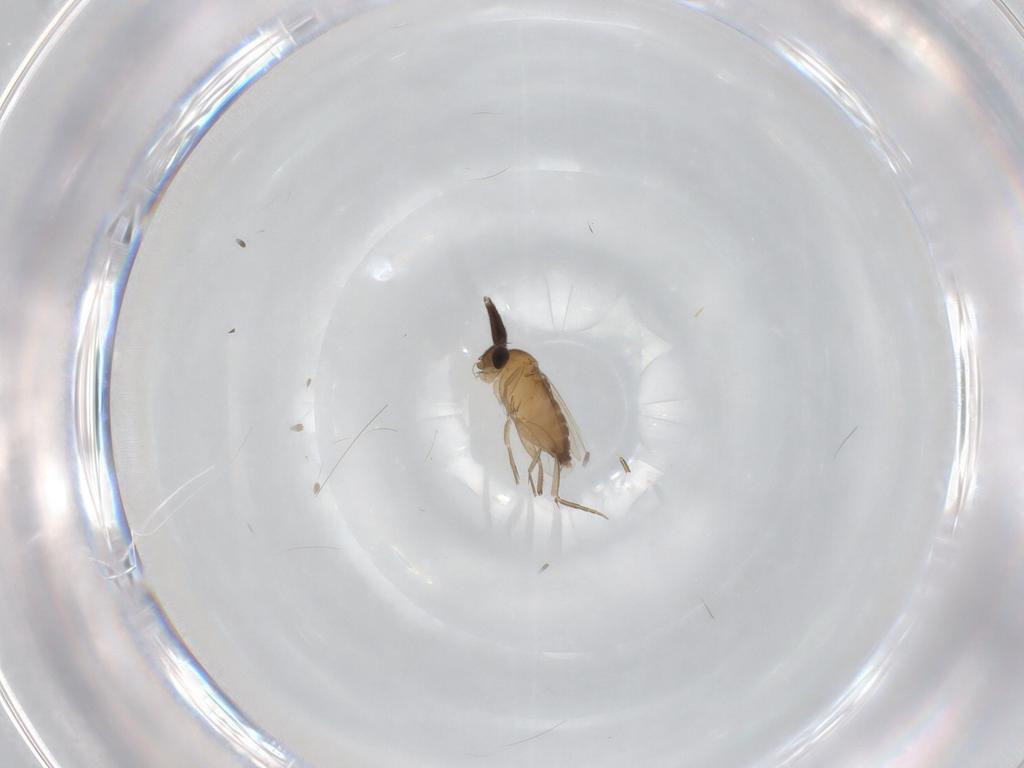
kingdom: Animalia
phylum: Arthropoda
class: Insecta
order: Diptera
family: Dolichopodidae
